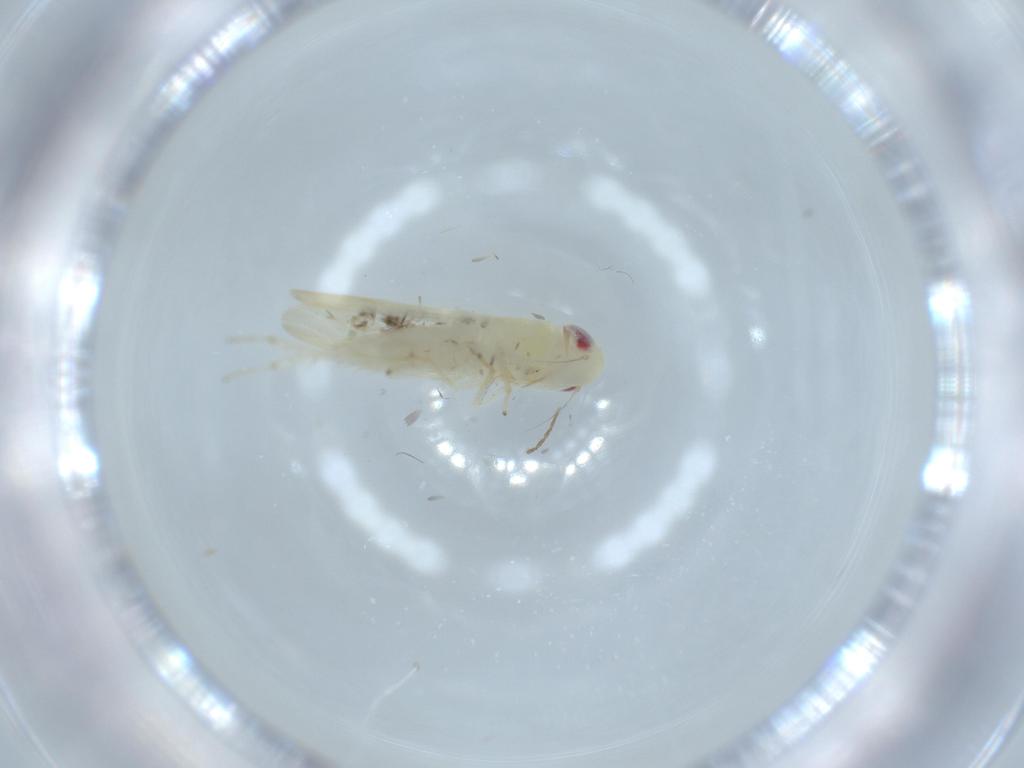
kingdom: Animalia
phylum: Arthropoda
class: Insecta
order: Hemiptera
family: Cicadellidae
